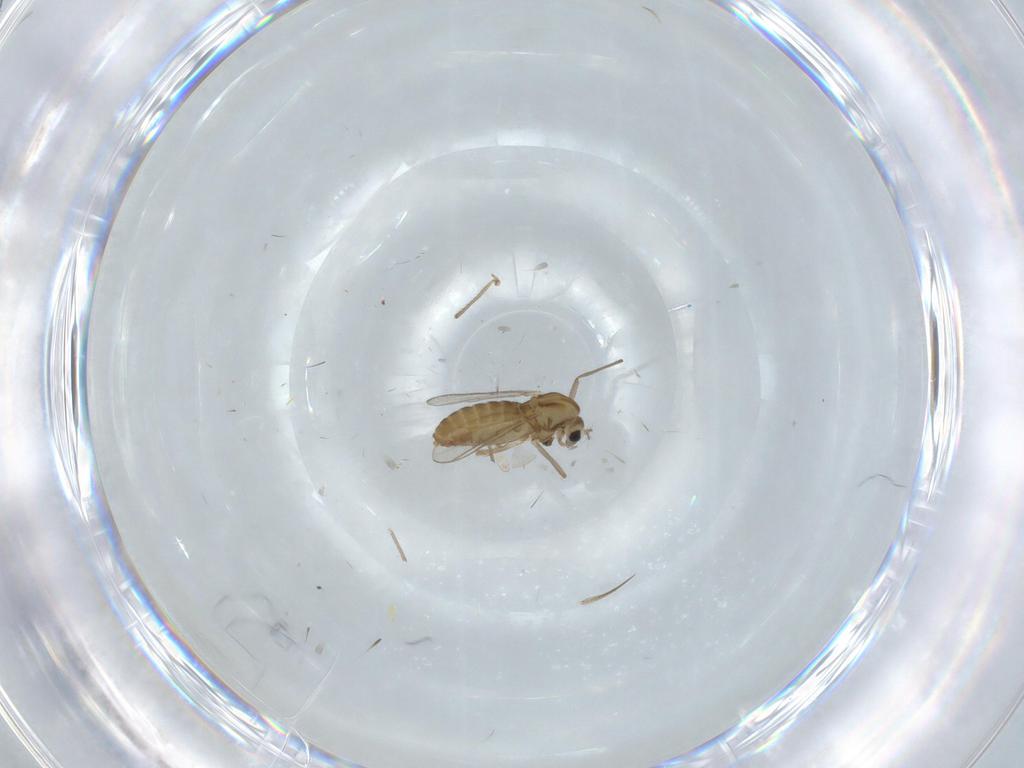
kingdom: Animalia
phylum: Arthropoda
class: Insecta
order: Diptera
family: Chironomidae
